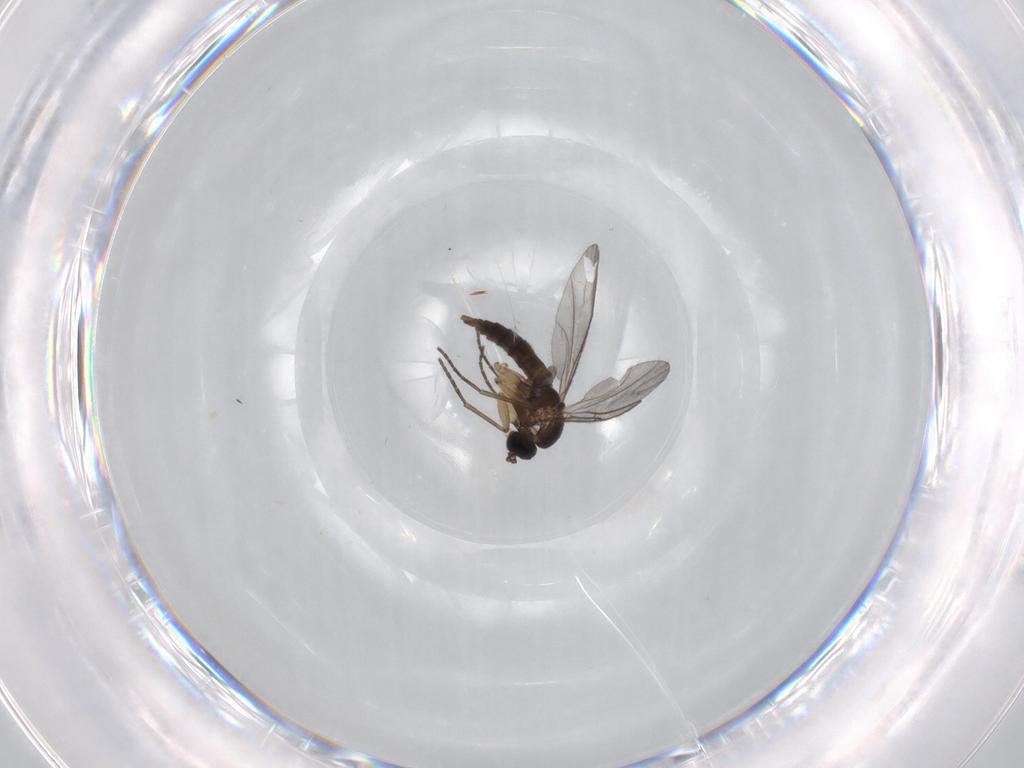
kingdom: Animalia
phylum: Arthropoda
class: Insecta
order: Diptera
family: Sciaridae
